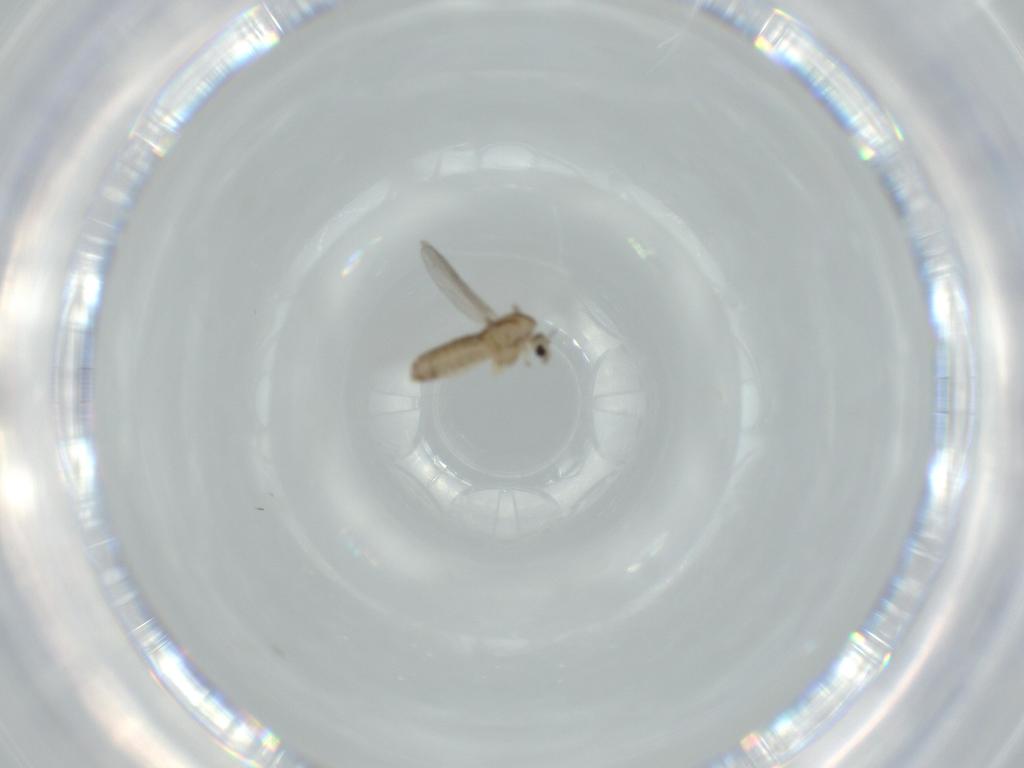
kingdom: Animalia
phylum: Arthropoda
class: Insecta
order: Diptera
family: Chironomidae
